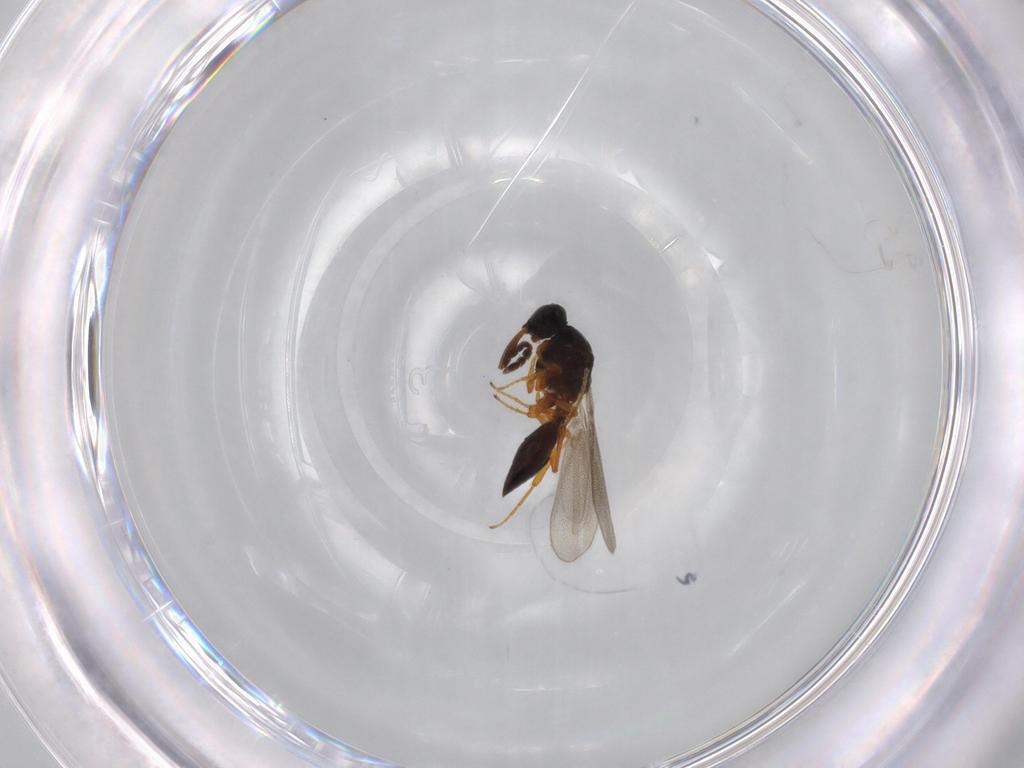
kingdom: Animalia
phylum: Arthropoda
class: Insecta
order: Hymenoptera
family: Platygastridae
